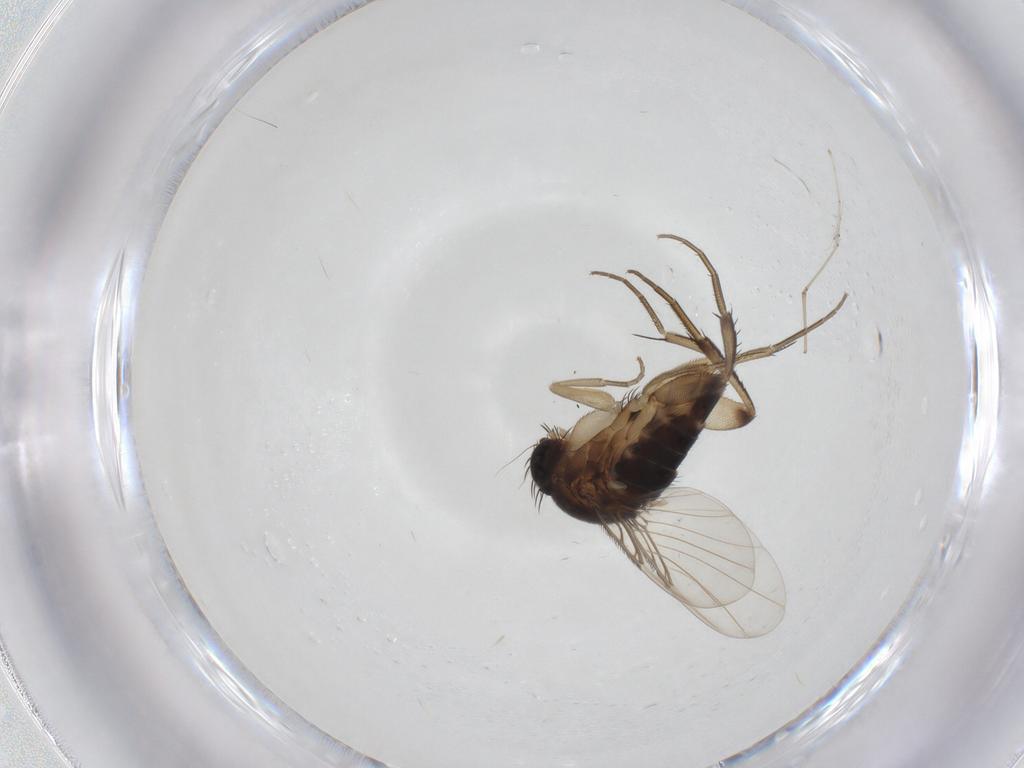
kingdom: Animalia
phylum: Arthropoda
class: Insecta
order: Diptera
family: Phoridae
